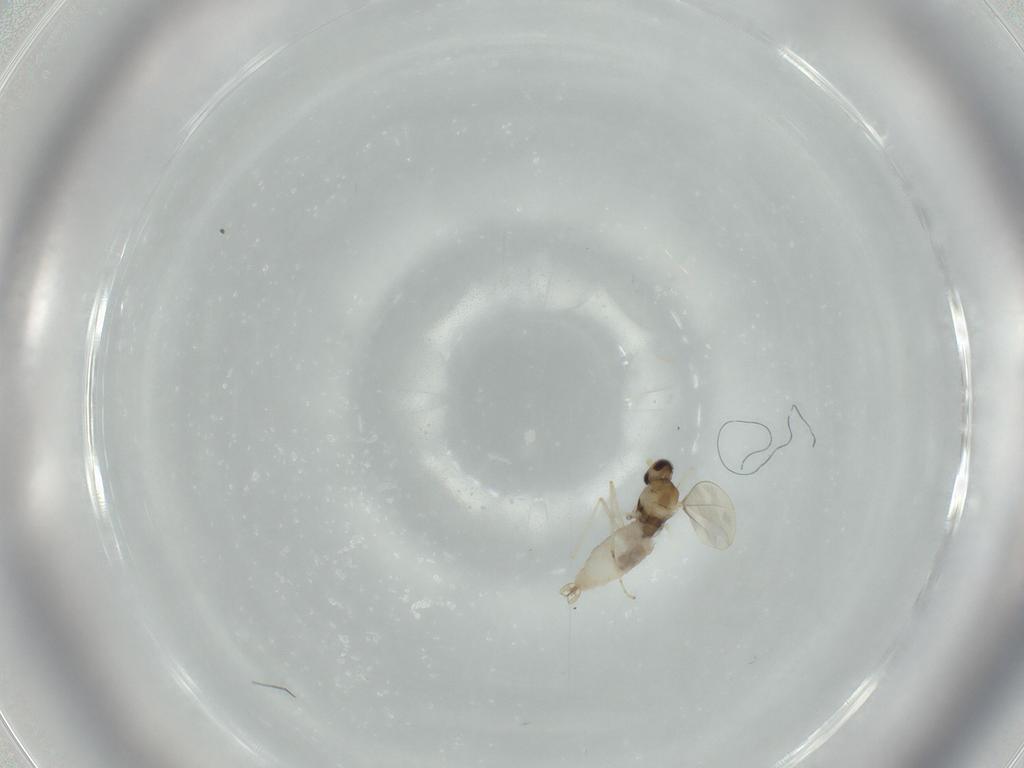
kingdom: Animalia
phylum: Arthropoda
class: Insecta
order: Diptera
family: Cecidomyiidae
